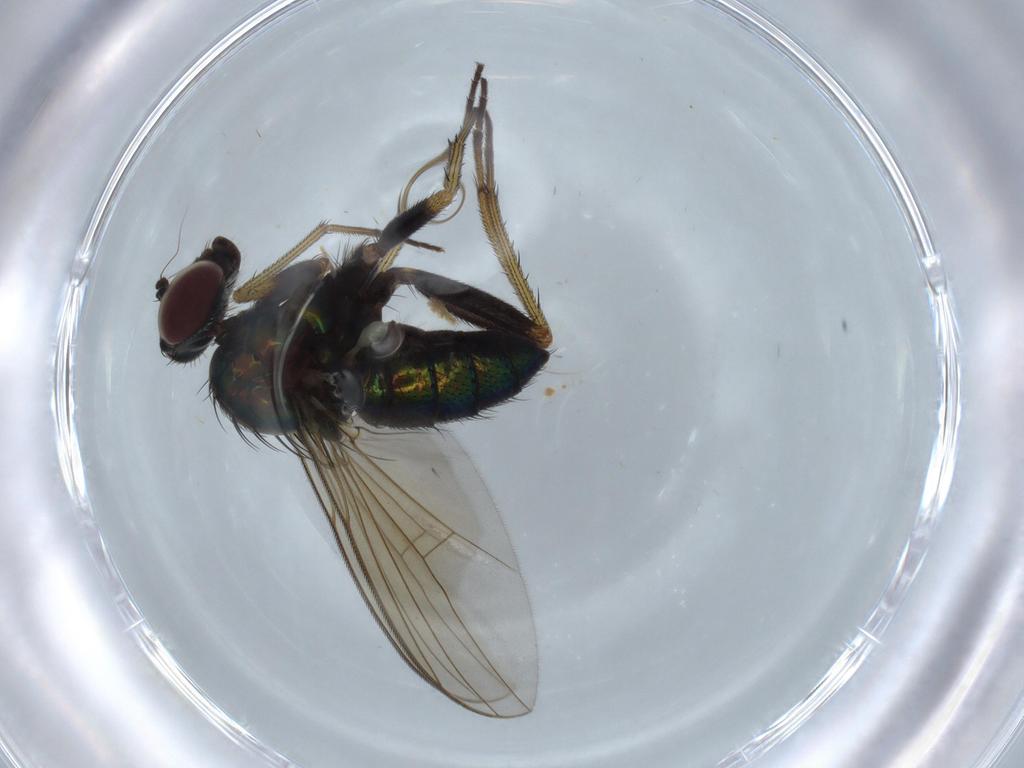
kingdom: Animalia
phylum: Arthropoda
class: Insecta
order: Diptera
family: Dolichopodidae
